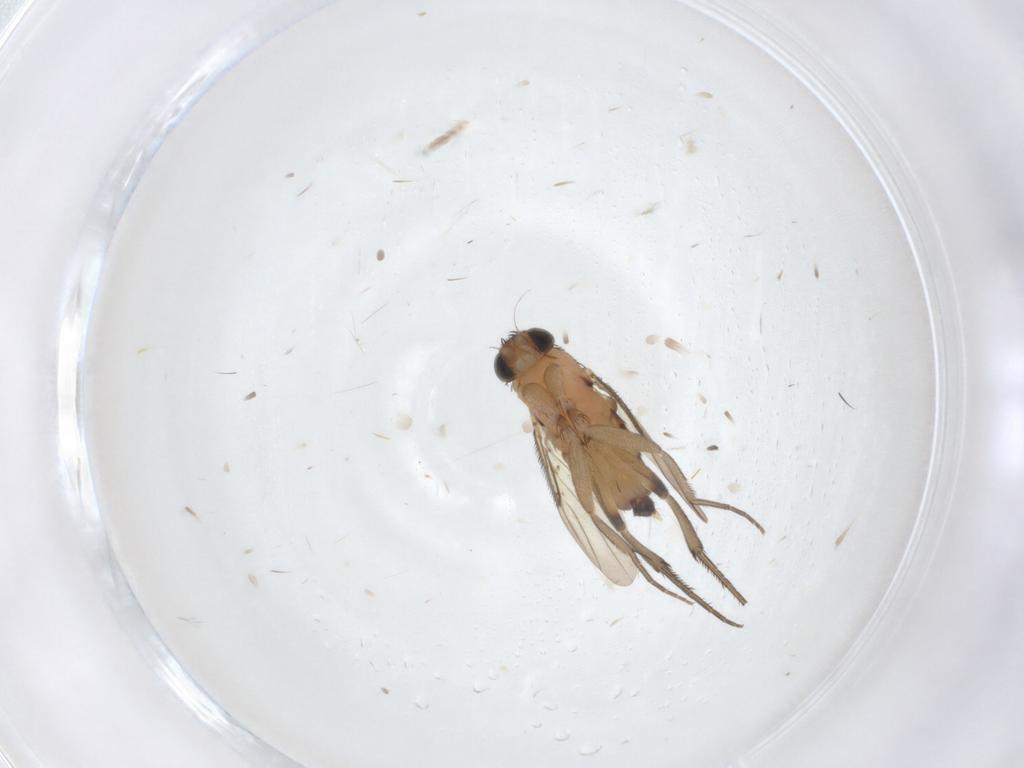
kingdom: Animalia
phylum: Arthropoda
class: Insecta
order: Diptera
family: Phoridae
